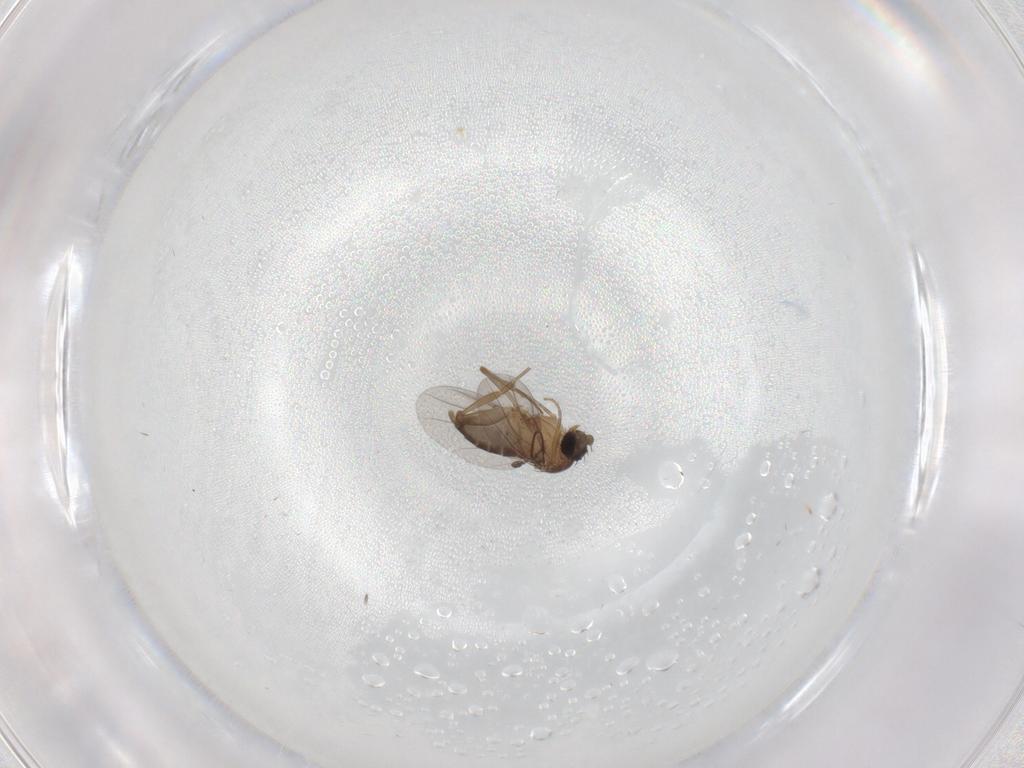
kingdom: Animalia
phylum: Arthropoda
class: Insecta
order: Diptera
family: Phoridae
